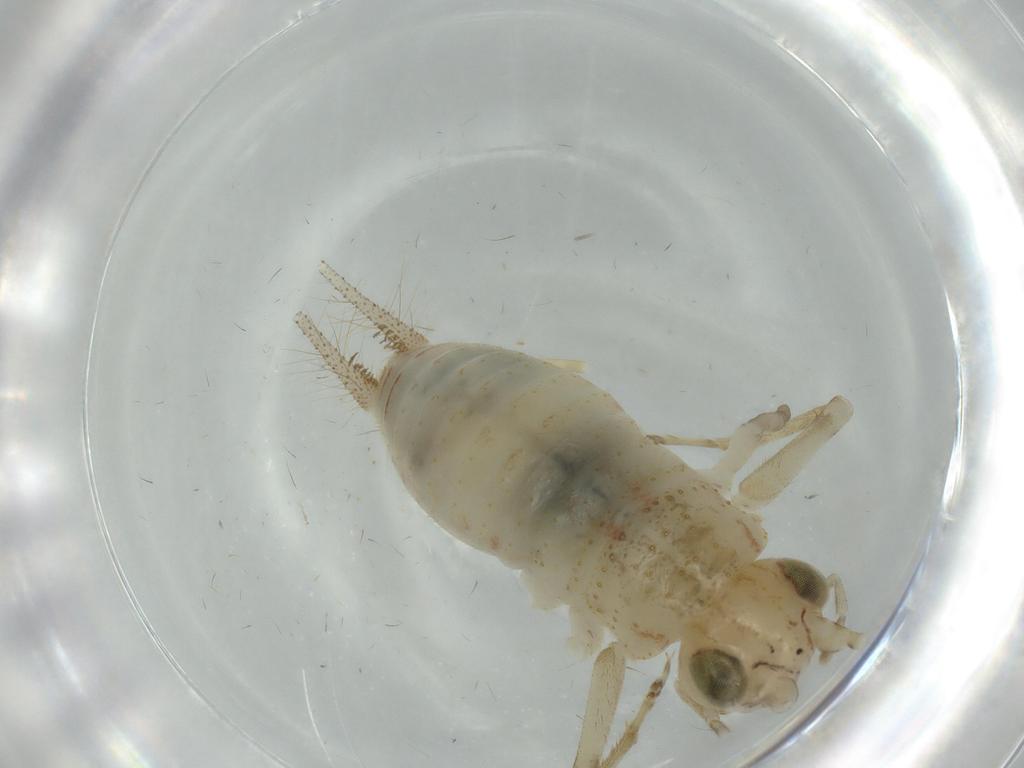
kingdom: Animalia
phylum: Arthropoda
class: Insecta
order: Orthoptera
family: Trigonidiidae
